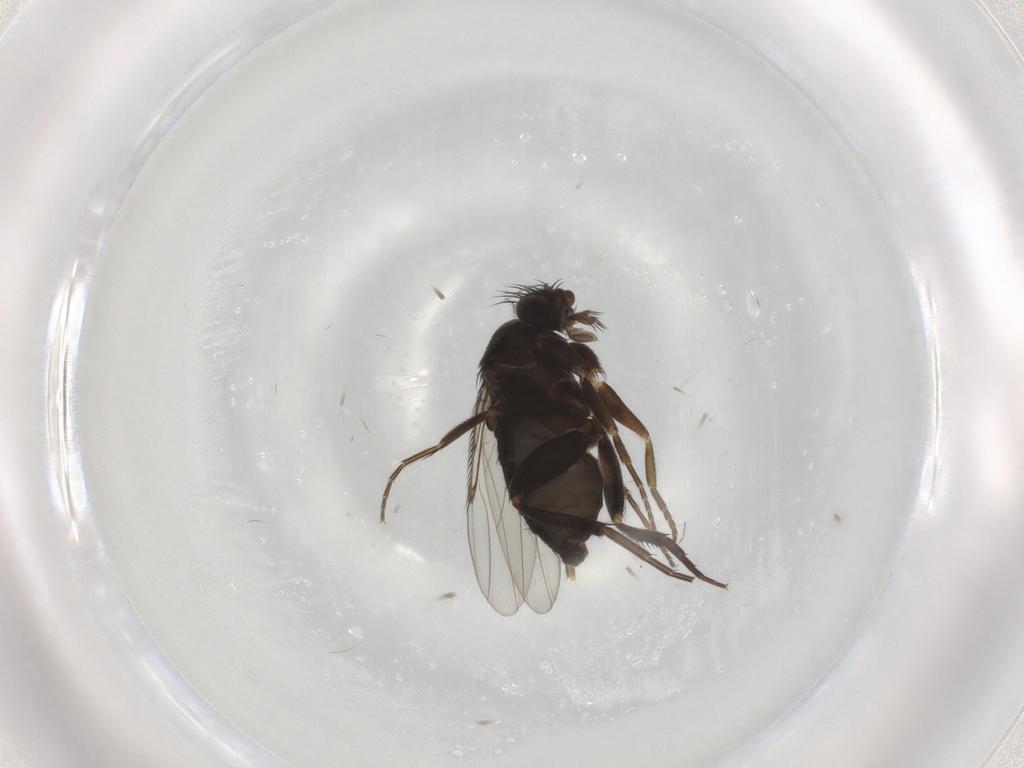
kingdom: Animalia
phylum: Arthropoda
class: Insecta
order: Diptera
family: Phoridae
